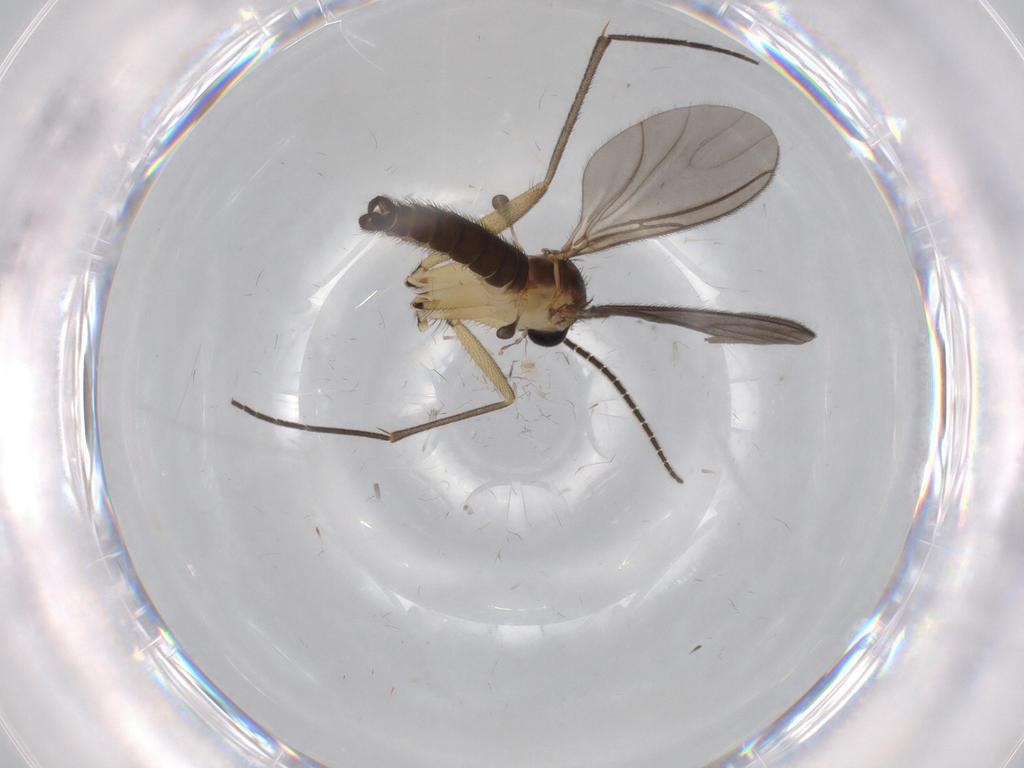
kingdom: Animalia
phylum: Arthropoda
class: Insecta
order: Diptera
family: Sciaridae
